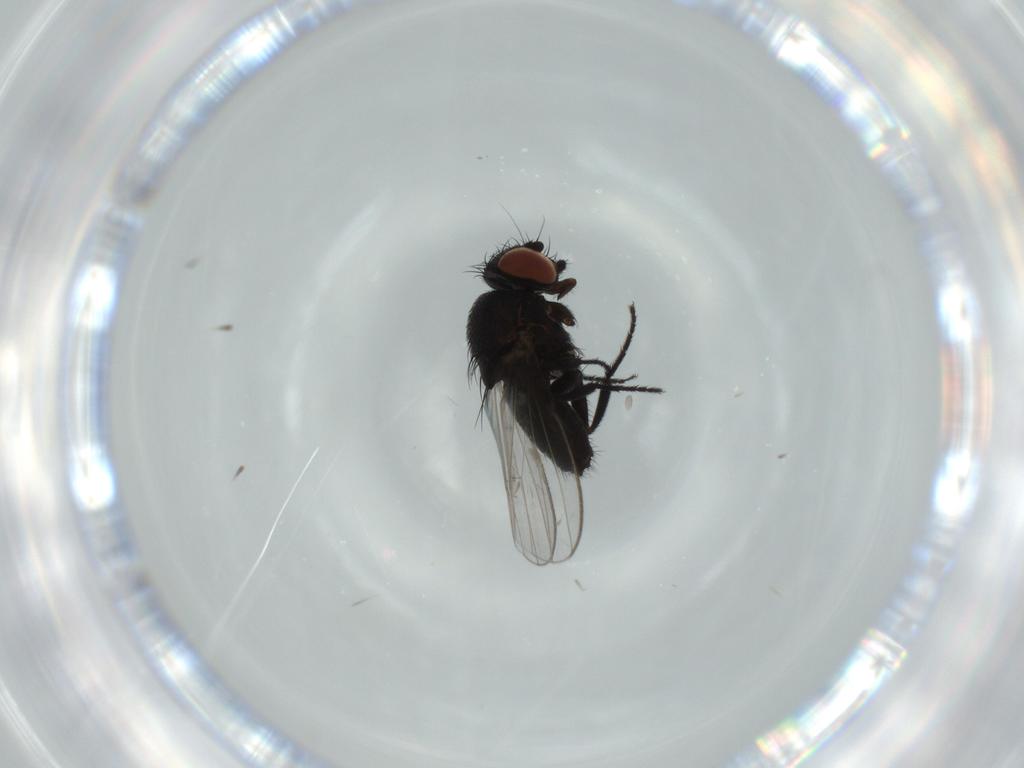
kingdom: Animalia
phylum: Arthropoda
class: Insecta
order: Diptera
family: Milichiidae
